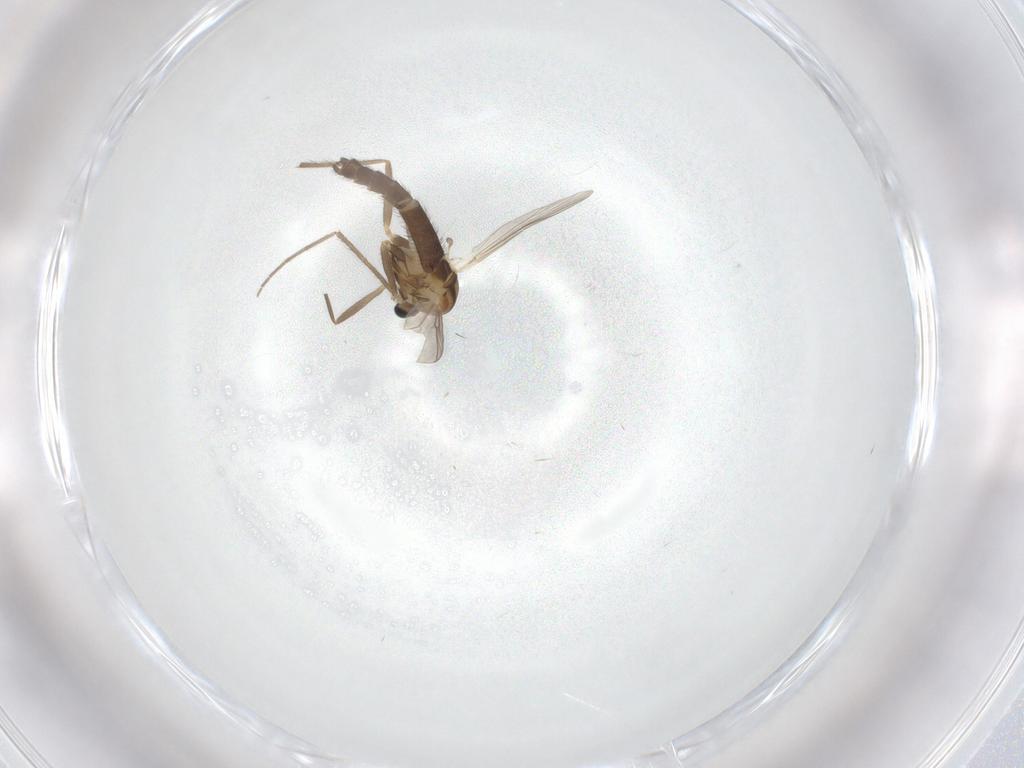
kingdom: Animalia
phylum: Arthropoda
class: Insecta
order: Diptera
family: Chironomidae
